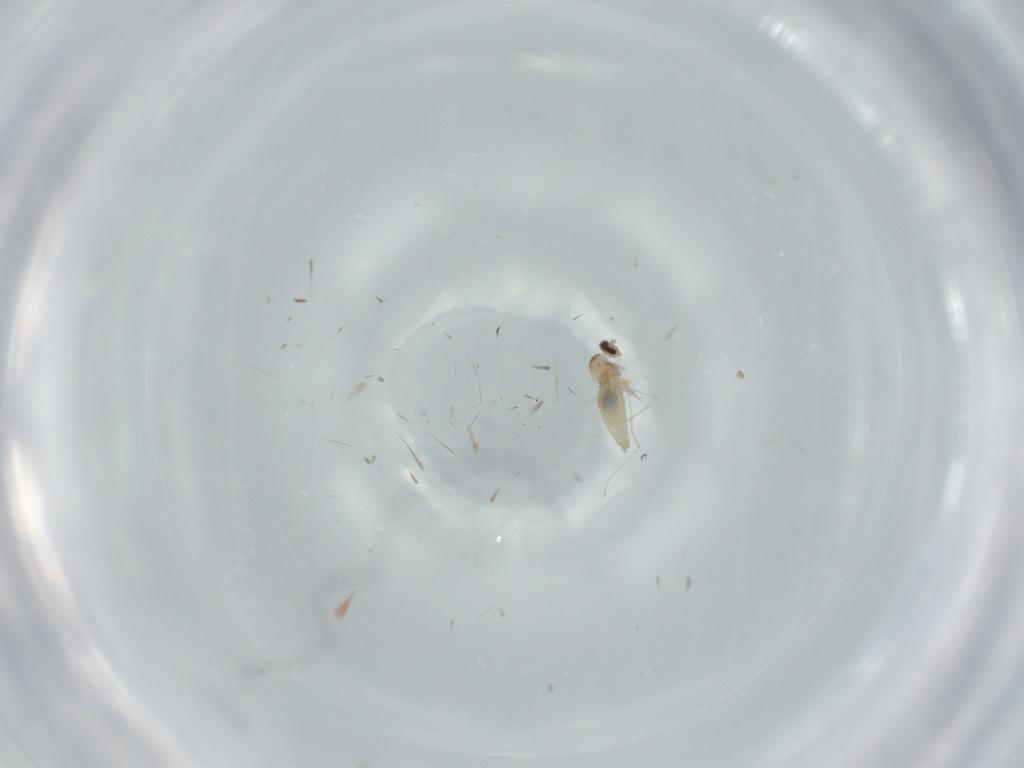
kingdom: Animalia
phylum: Arthropoda
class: Insecta
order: Diptera
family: Cecidomyiidae
